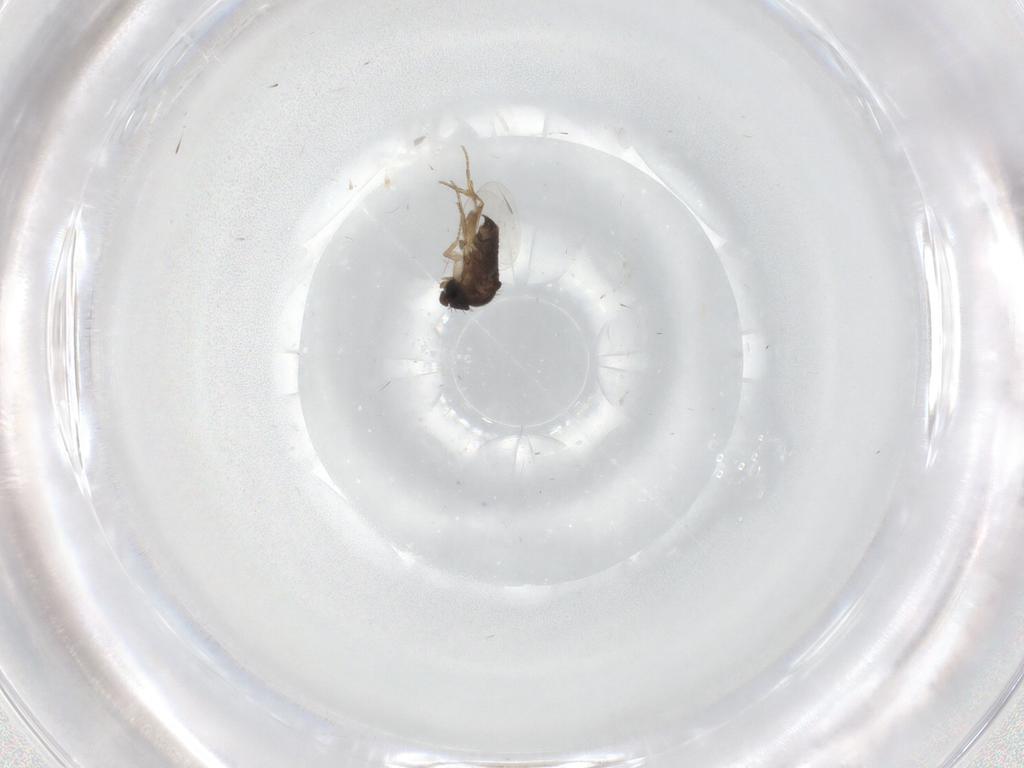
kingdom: Animalia
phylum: Arthropoda
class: Insecta
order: Diptera
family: Phoridae
